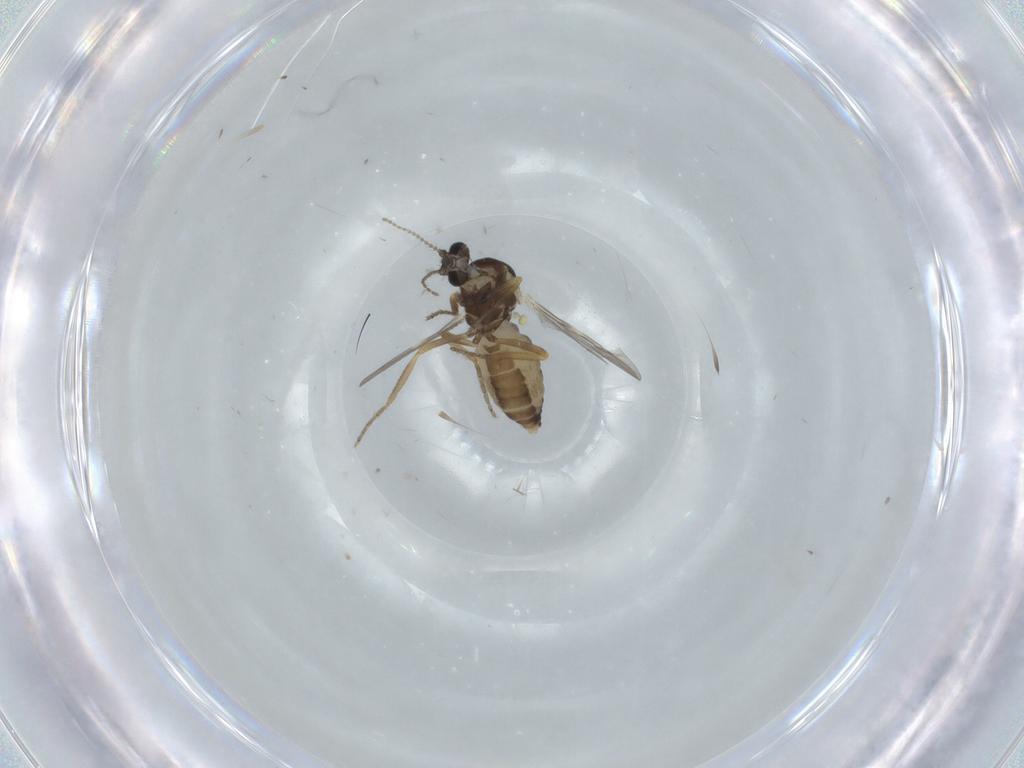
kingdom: Animalia
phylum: Arthropoda
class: Insecta
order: Diptera
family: Ceratopogonidae
